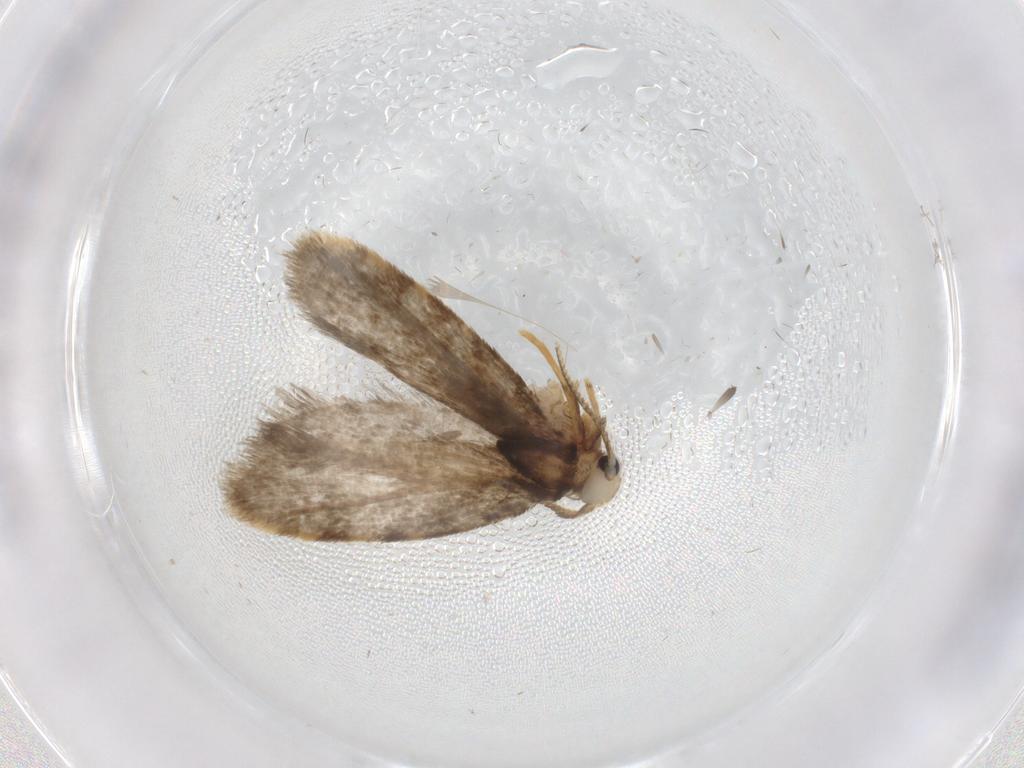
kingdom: Animalia
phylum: Arthropoda
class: Insecta
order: Lepidoptera
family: Psychidae
